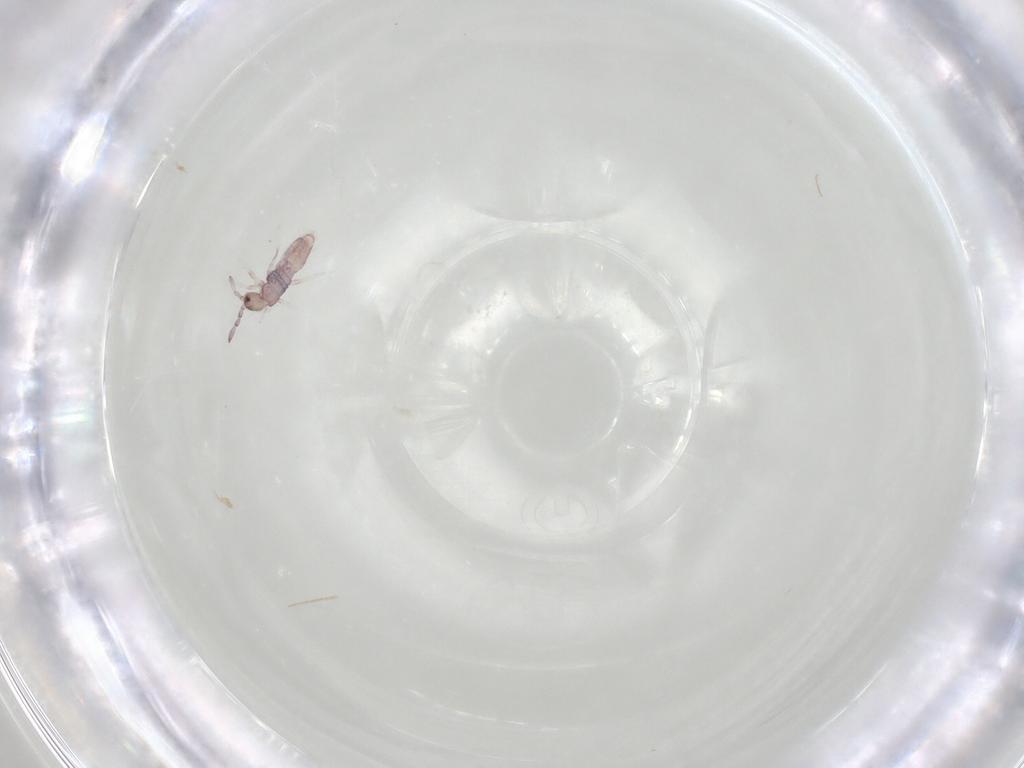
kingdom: Animalia
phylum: Arthropoda
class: Collembola
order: Entomobryomorpha
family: Entomobryidae
